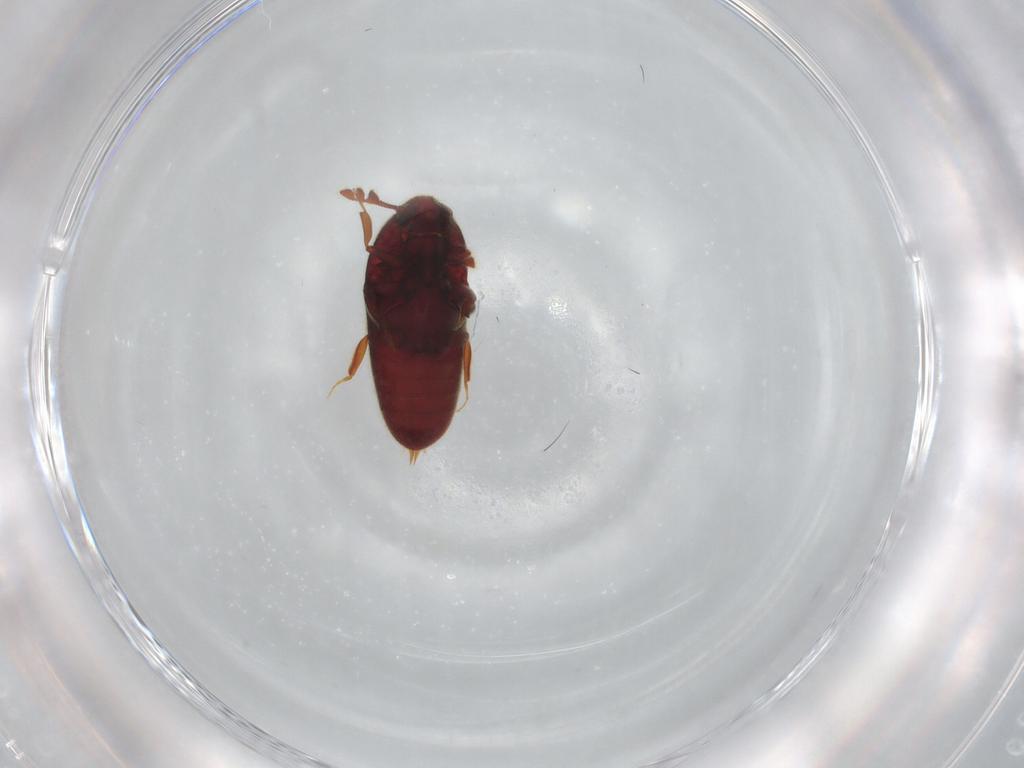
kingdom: Animalia
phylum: Arthropoda
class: Insecta
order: Coleoptera
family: Throscidae
